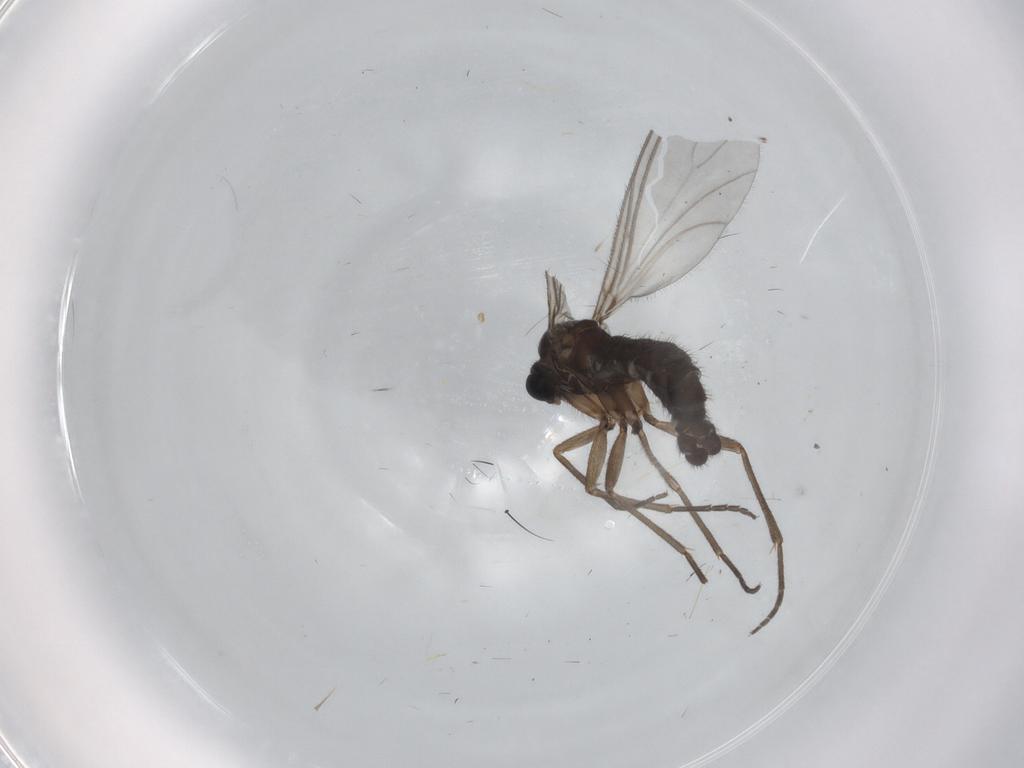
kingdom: Animalia
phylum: Arthropoda
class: Insecta
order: Diptera
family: Sciaridae
